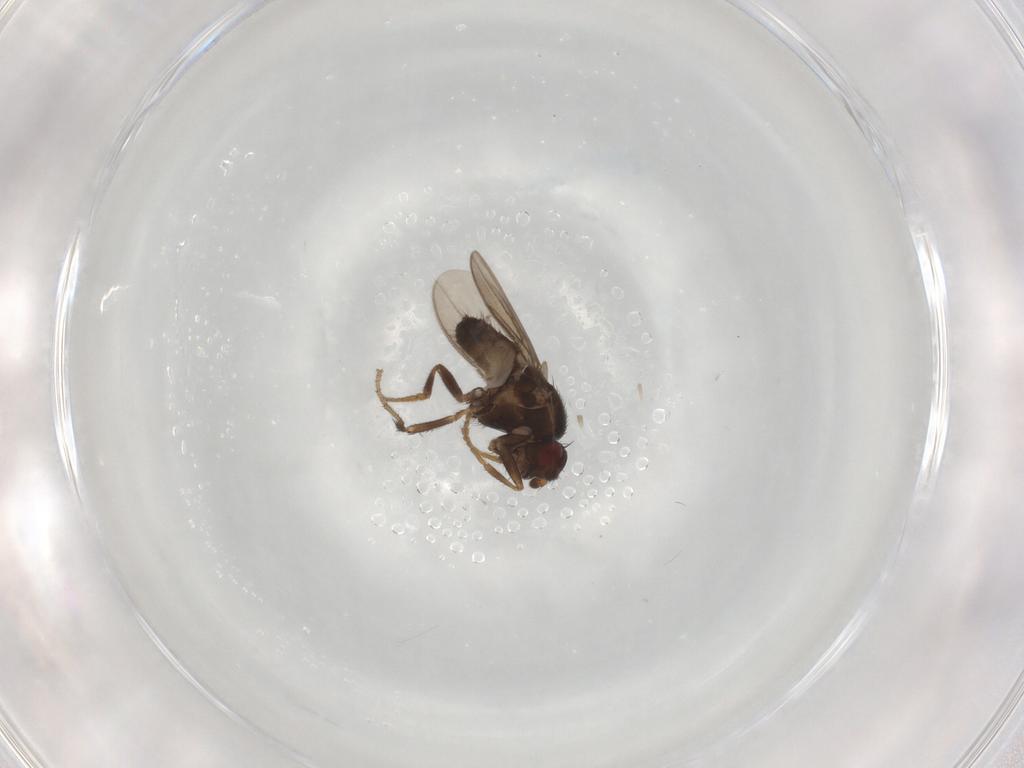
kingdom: Animalia
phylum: Arthropoda
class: Insecta
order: Diptera
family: Sphaeroceridae
